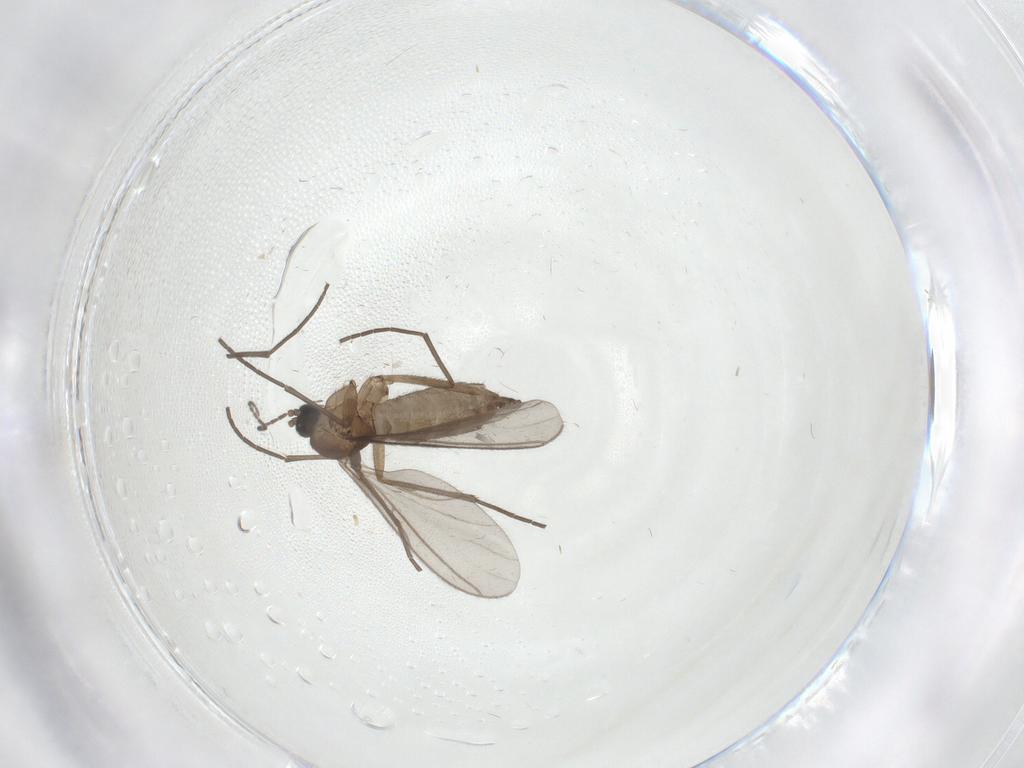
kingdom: Animalia
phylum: Arthropoda
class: Insecta
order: Diptera
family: Sciaridae
